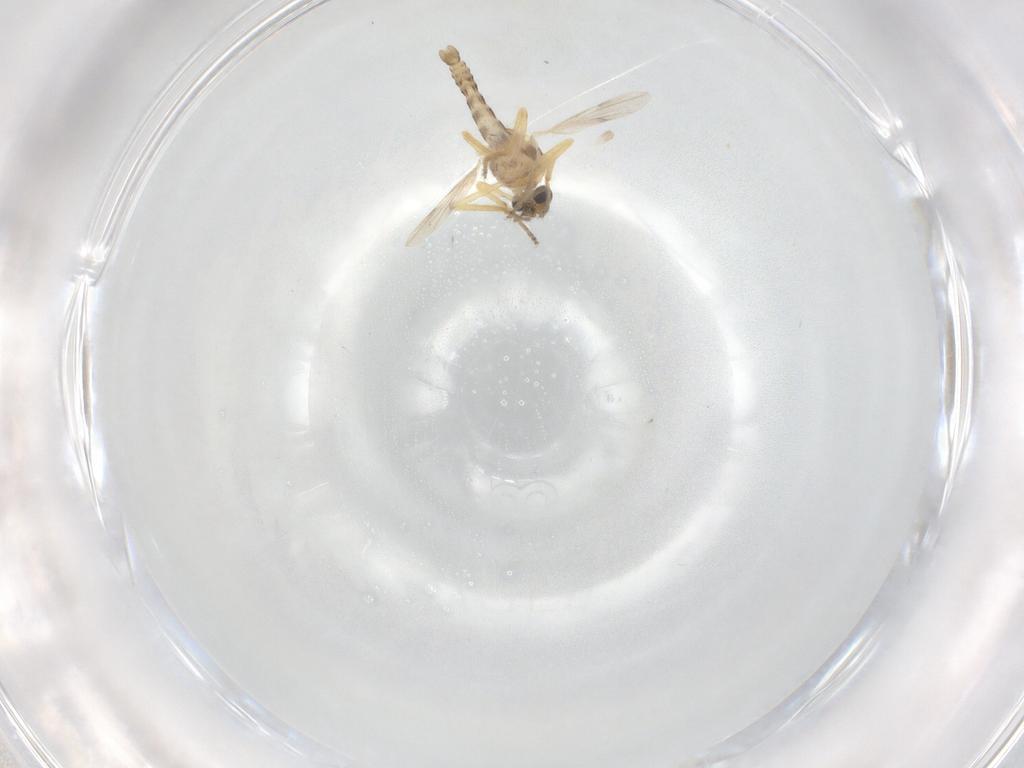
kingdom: Animalia
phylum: Arthropoda
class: Insecta
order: Diptera
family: Ceratopogonidae
